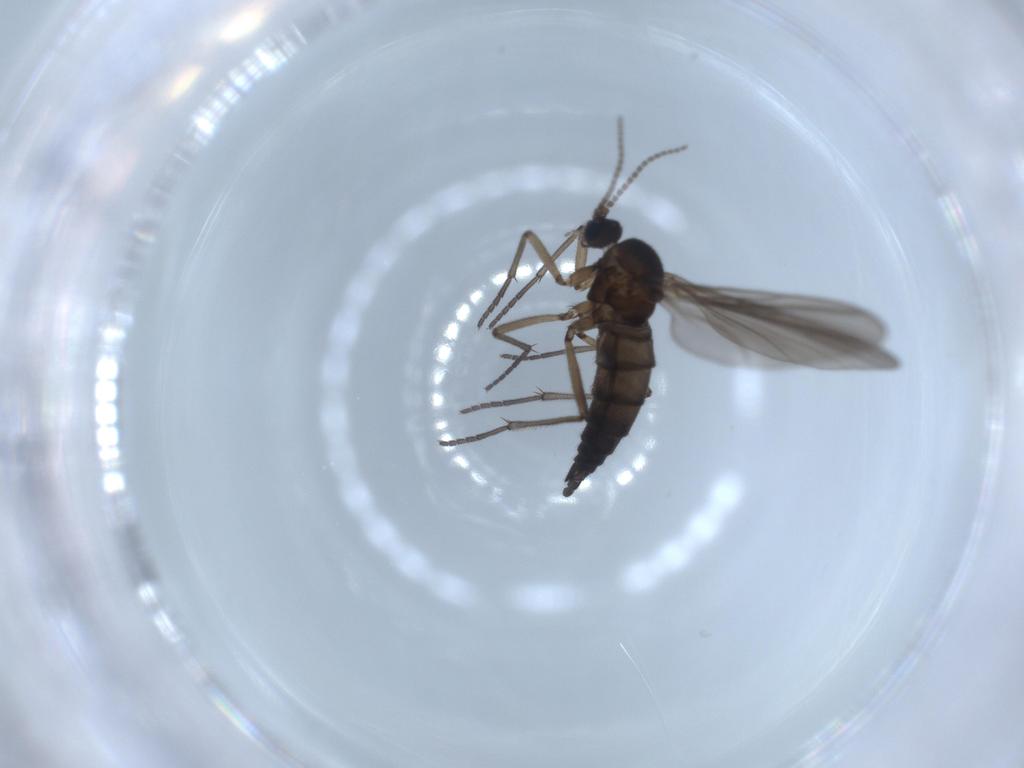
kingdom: Animalia
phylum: Arthropoda
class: Insecta
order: Diptera
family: Sciaridae
